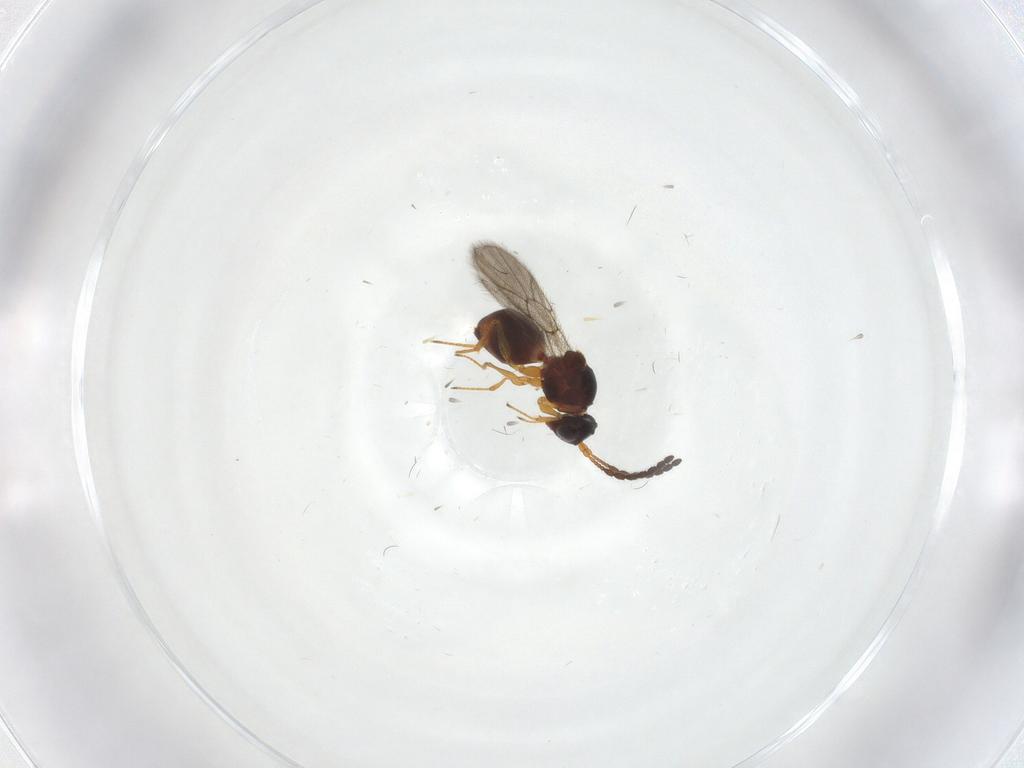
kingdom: Animalia
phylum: Arthropoda
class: Insecta
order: Hymenoptera
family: Figitidae
